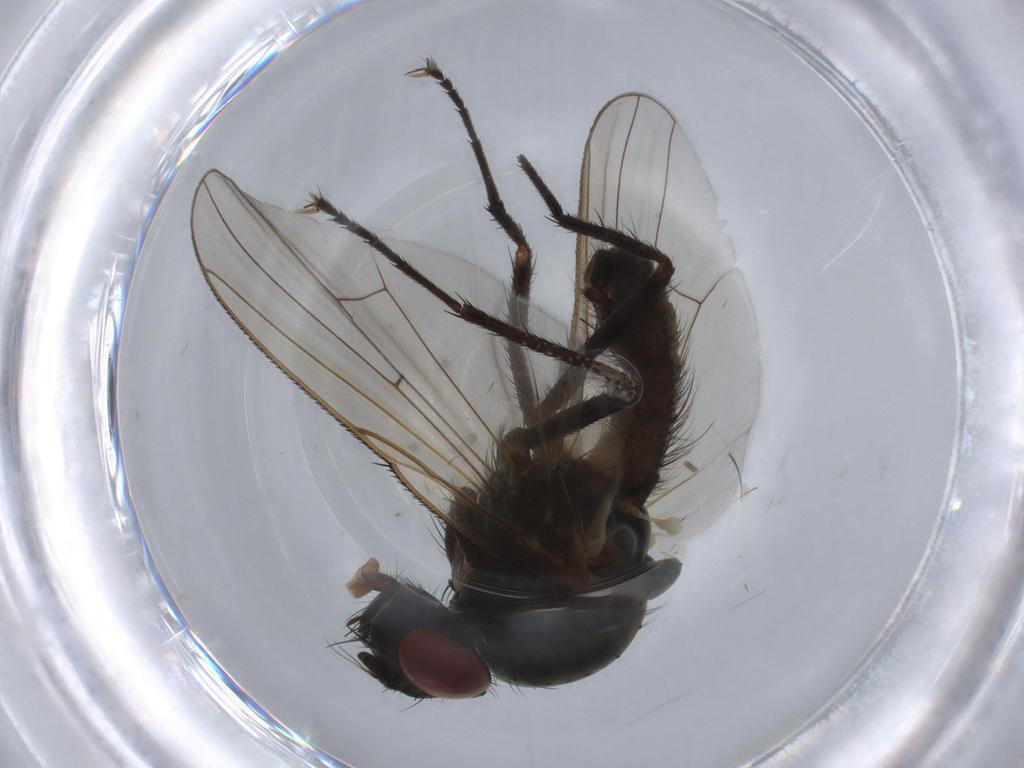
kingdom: Animalia
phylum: Arthropoda
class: Insecta
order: Diptera
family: Anthomyiidae
